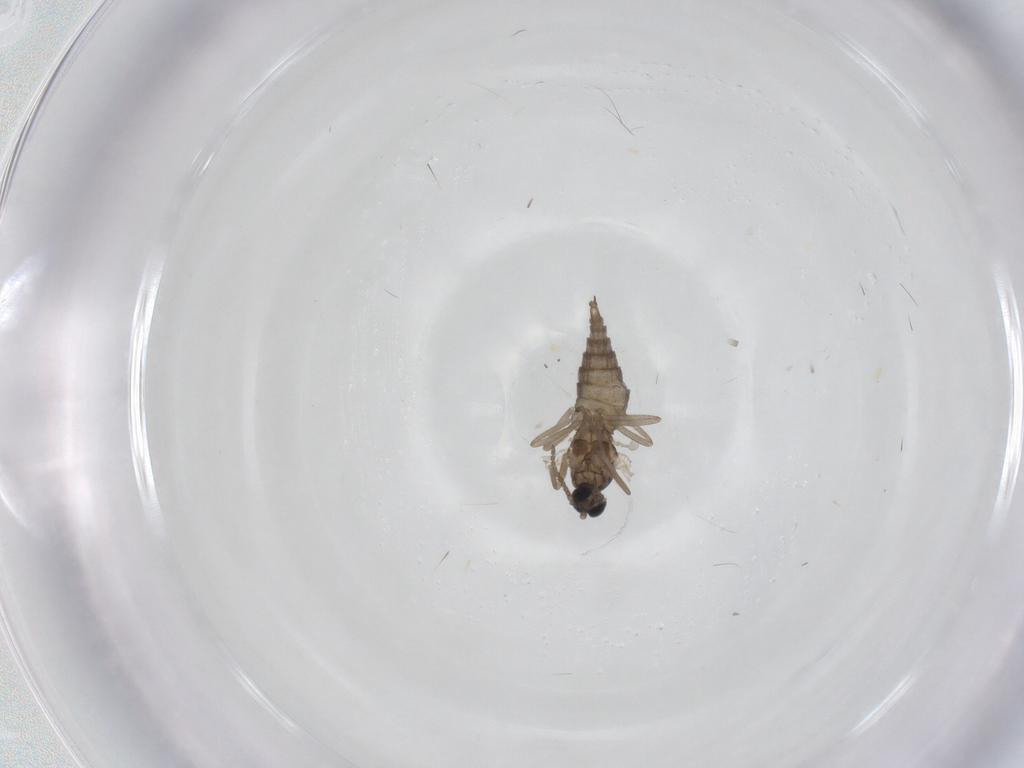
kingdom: Animalia
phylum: Arthropoda
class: Insecta
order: Diptera
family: Cecidomyiidae
